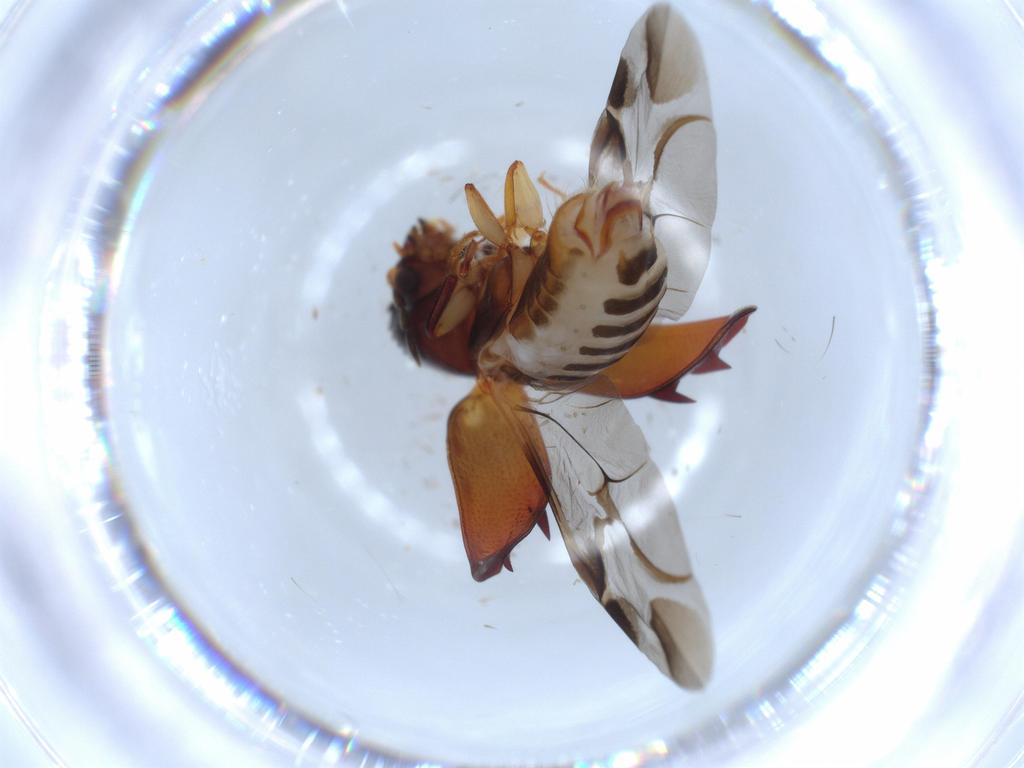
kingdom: Animalia
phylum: Arthropoda
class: Insecta
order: Coleoptera
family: Bostrichidae
